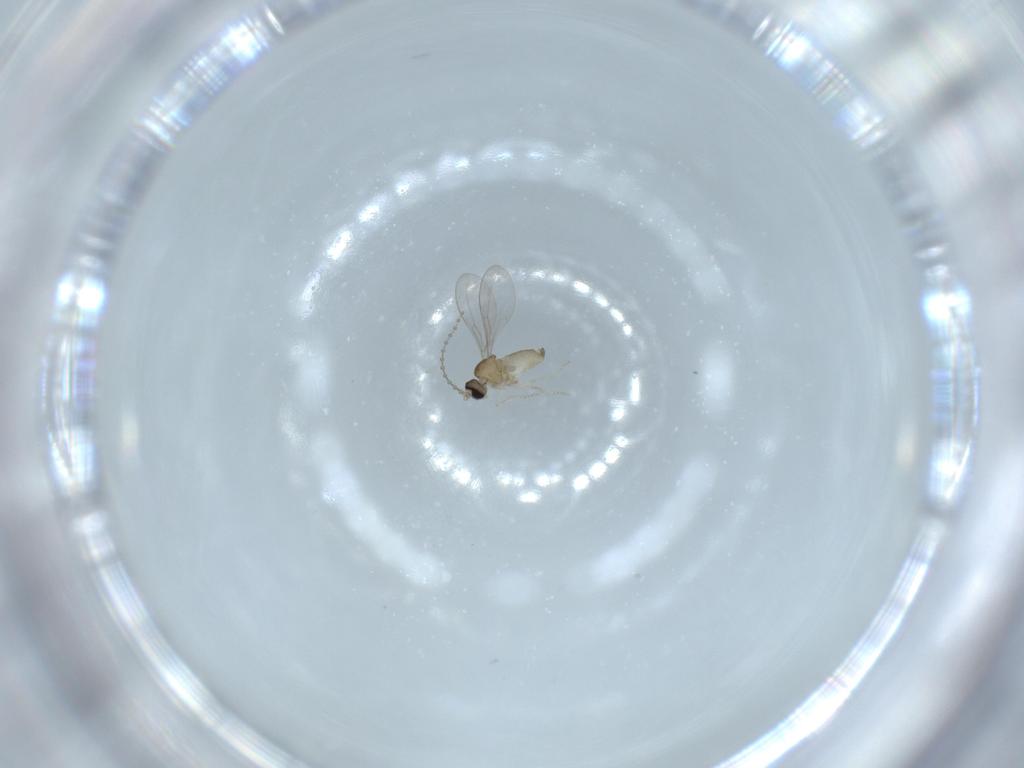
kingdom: Animalia
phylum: Arthropoda
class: Insecta
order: Diptera
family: Cecidomyiidae
